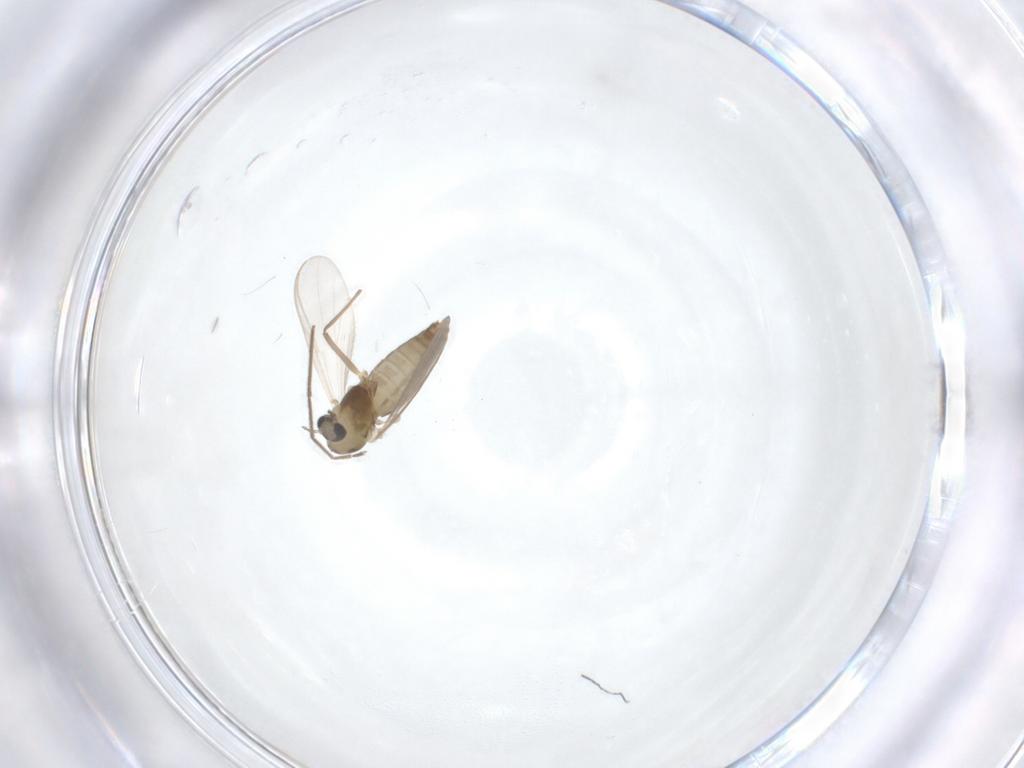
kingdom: Animalia
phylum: Arthropoda
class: Insecta
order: Diptera
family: Chironomidae
